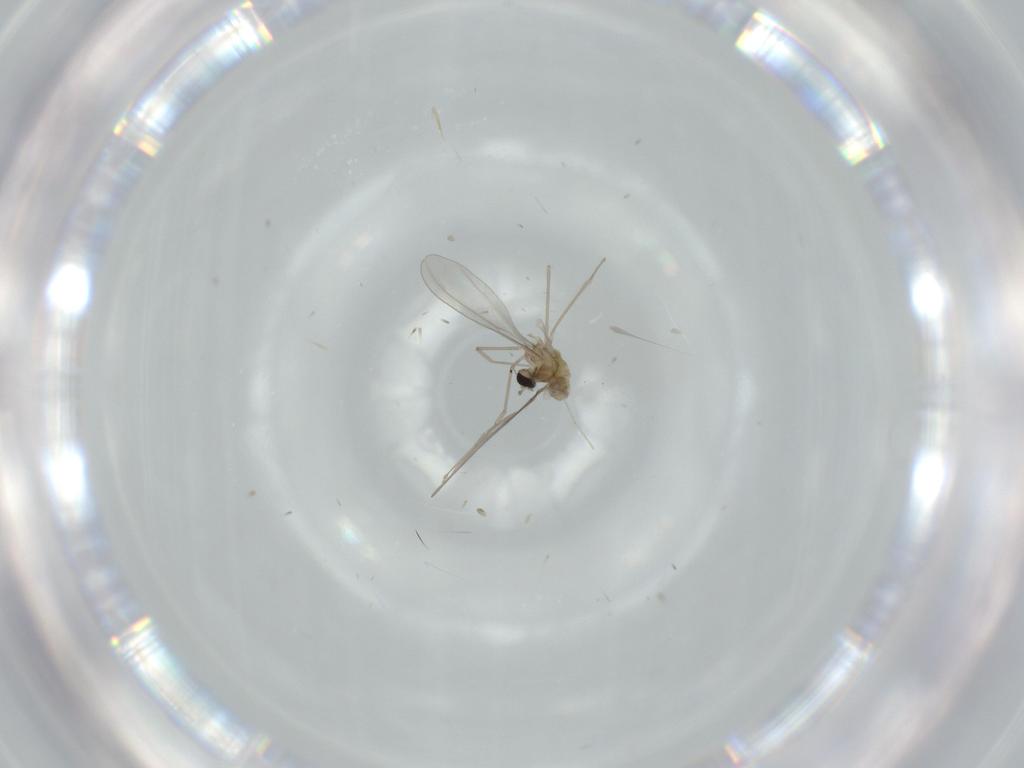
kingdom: Animalia
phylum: Arthropoda
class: Insecta
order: Diptera
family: Cecidomyiidae
